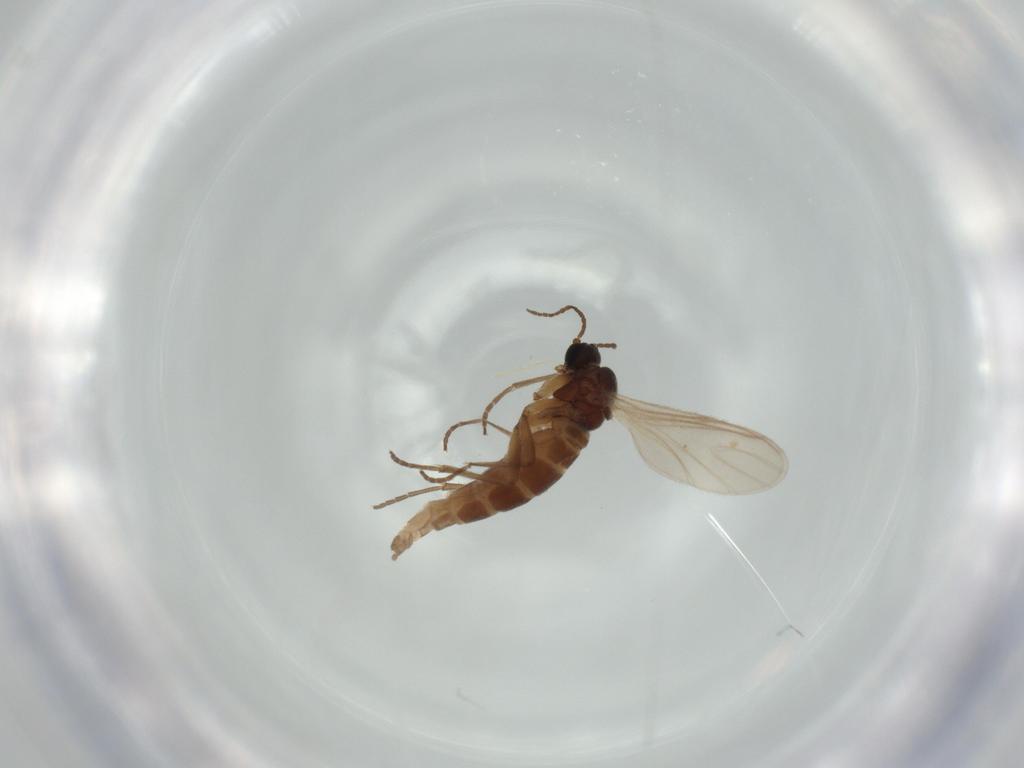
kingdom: Animalia
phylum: Arthropoda
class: Insecta
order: Diptera
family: Sciaridae
